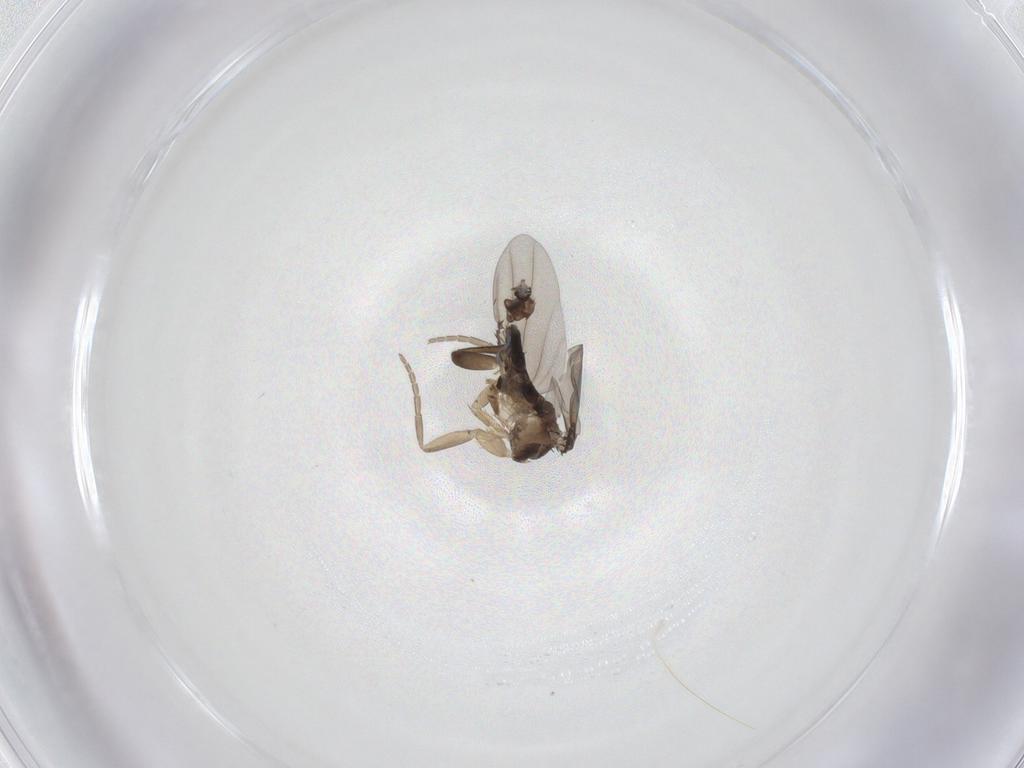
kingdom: Animalia
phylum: Arthropoda
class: Insecta
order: Diptera
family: Phoridae
